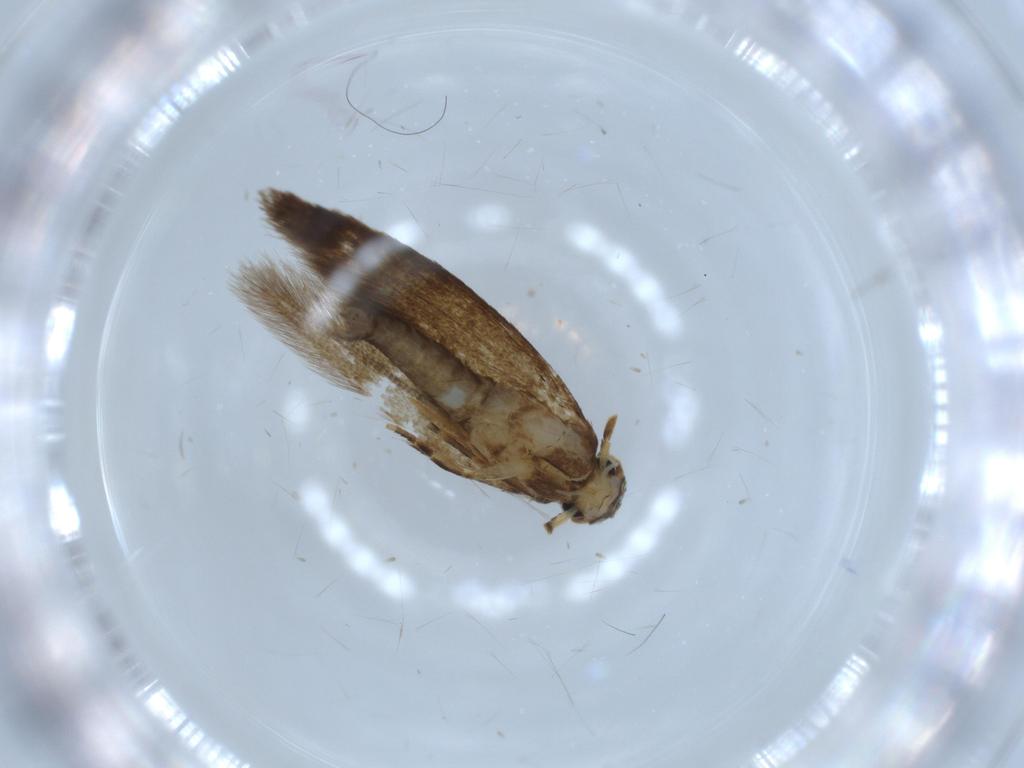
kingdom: Animalia
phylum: Arthropoda
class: Insecta
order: Lepidoptera
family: Tineidae
